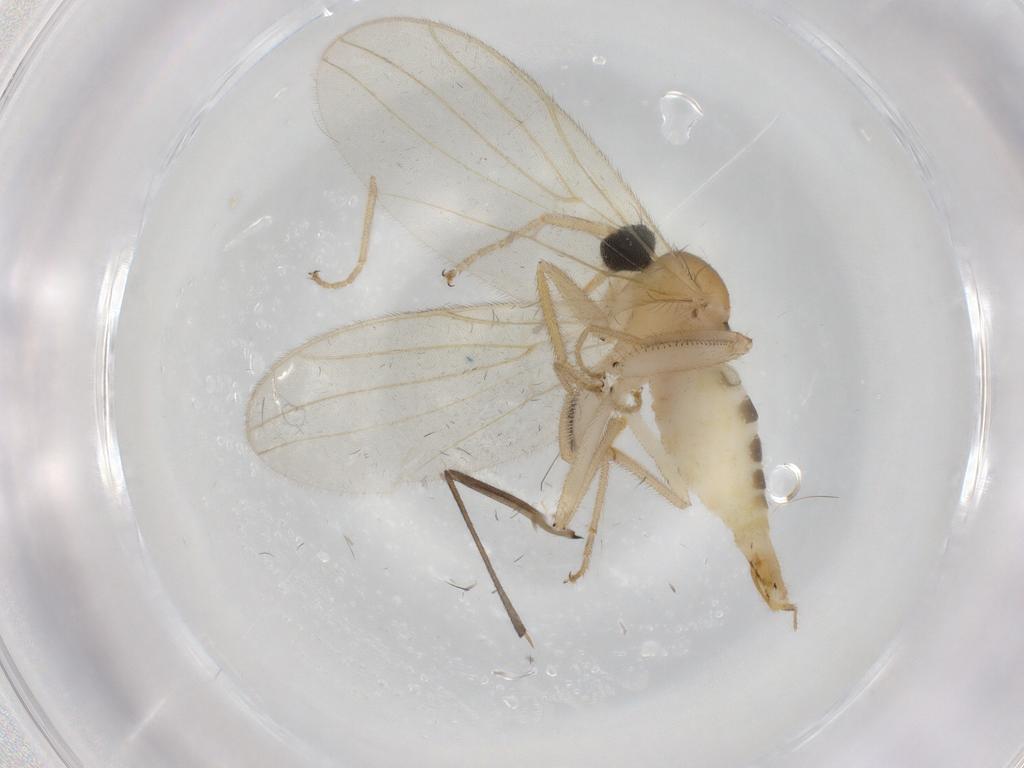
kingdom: Animalia
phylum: Arthropoda
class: Insecta
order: Diptera
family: Hybotidae
